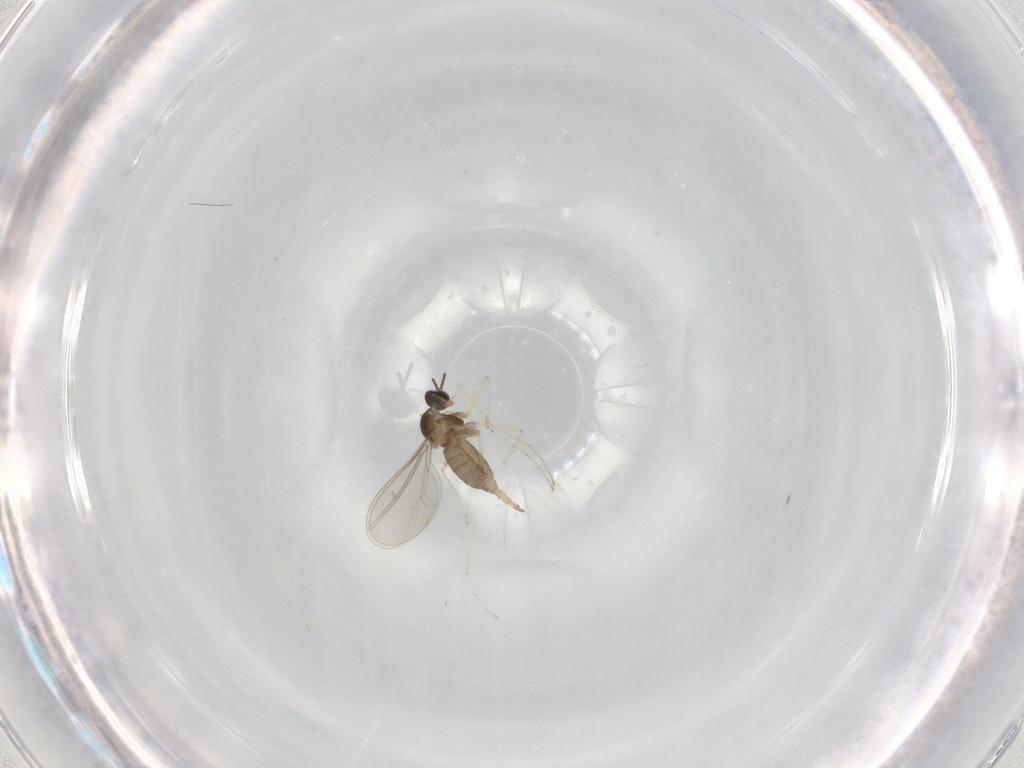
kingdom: Animalia
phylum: Arthropoda
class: Insecta
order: Diptera
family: Cecidomyiidae
